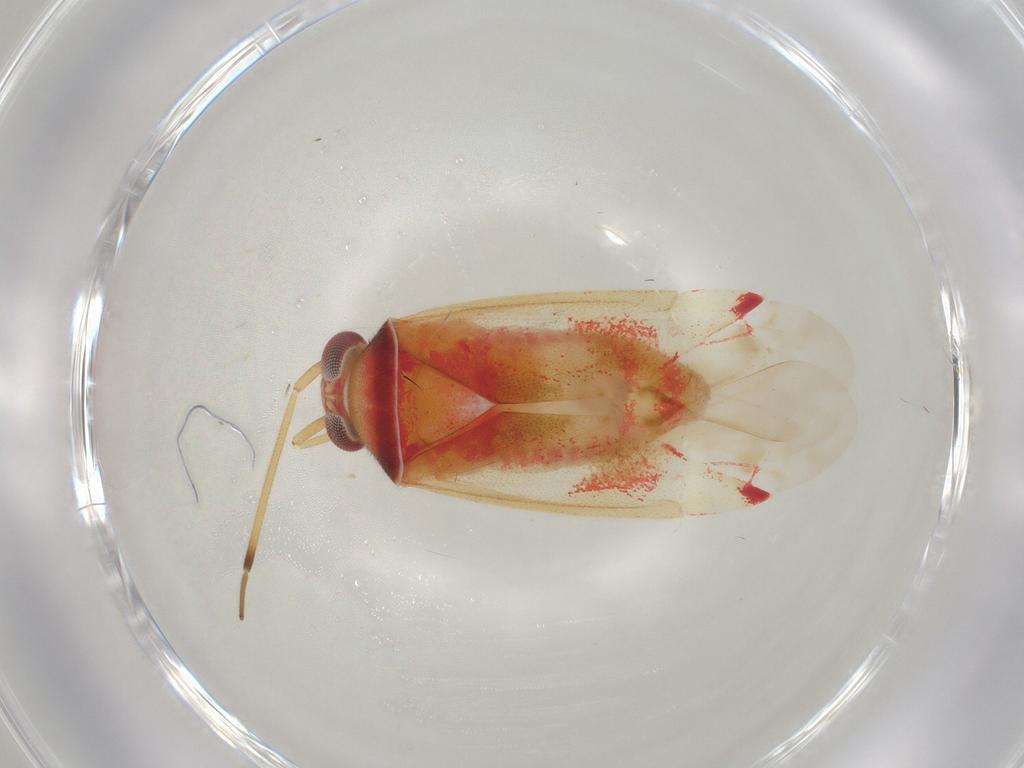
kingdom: Animalia
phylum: Arthropoda
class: Insecta
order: Hemiptera
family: Miridae
